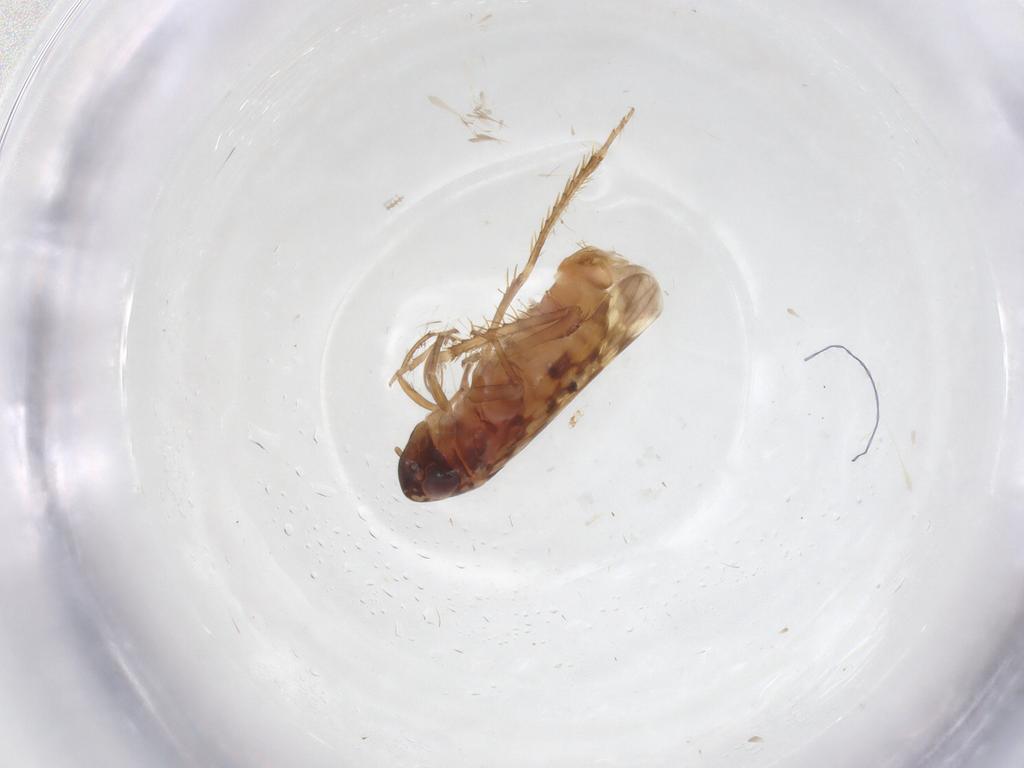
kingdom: Animalia
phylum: Arthropoda
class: Insecta
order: Hemiptera
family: Cicadellidae
